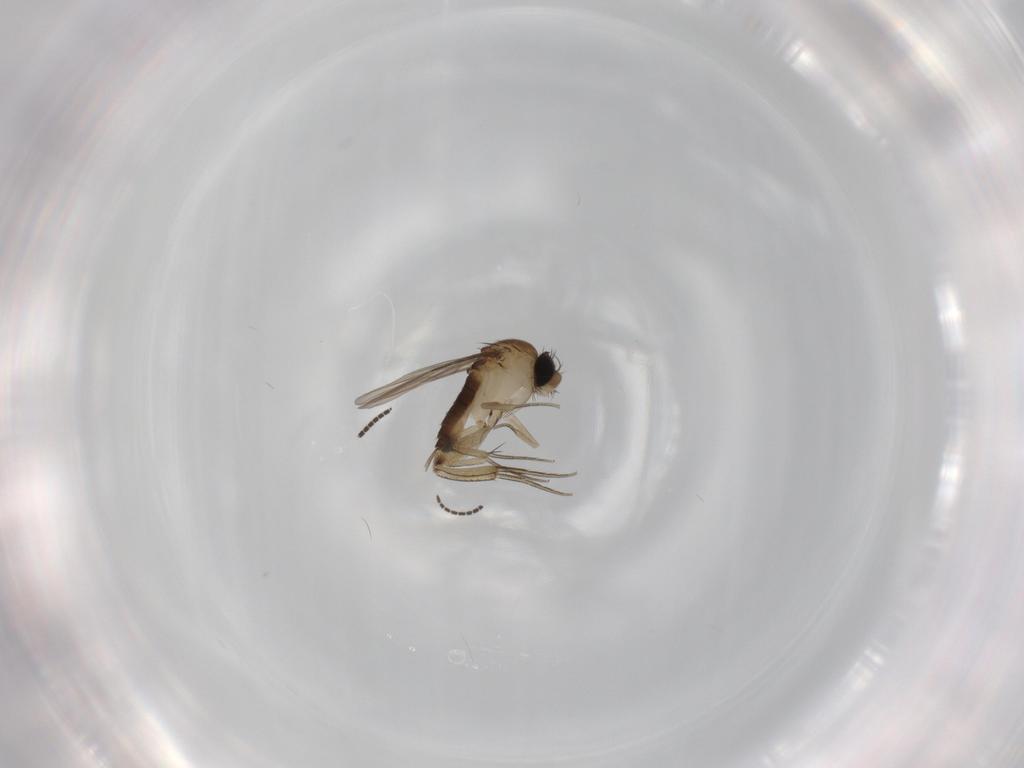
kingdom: Animalia
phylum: Arthropoda
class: Insecta
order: Diptera
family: Phoridae
